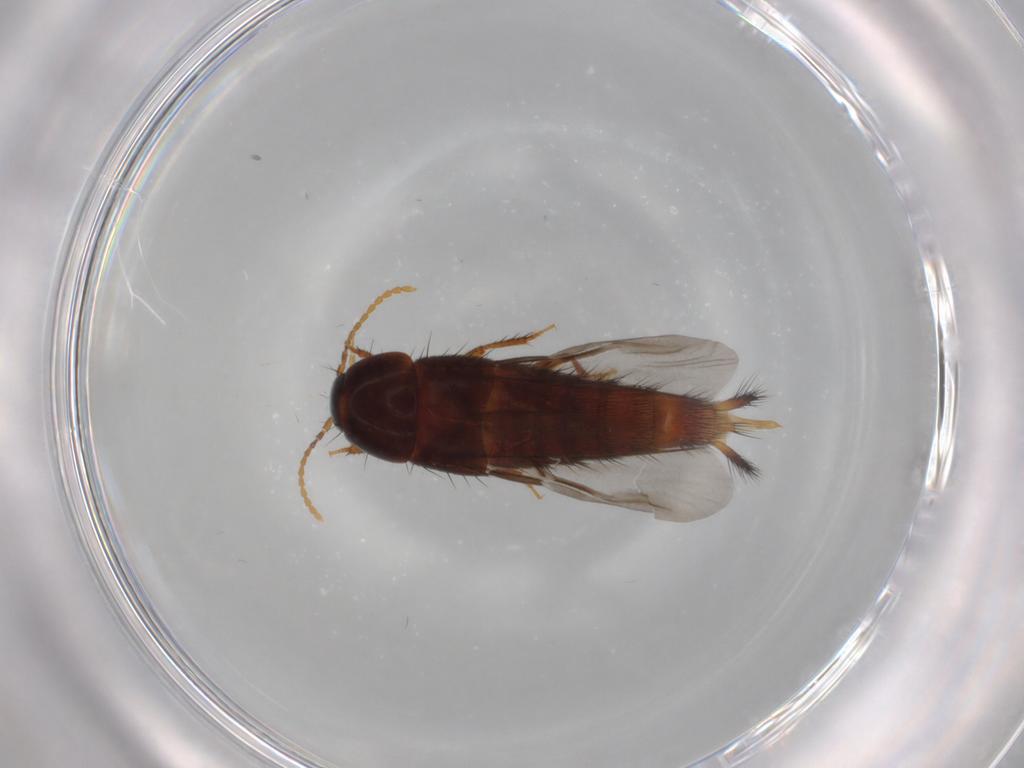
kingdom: Animalia
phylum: Arthropoda
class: Insecta
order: Coleoptera
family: Staphylinidae
